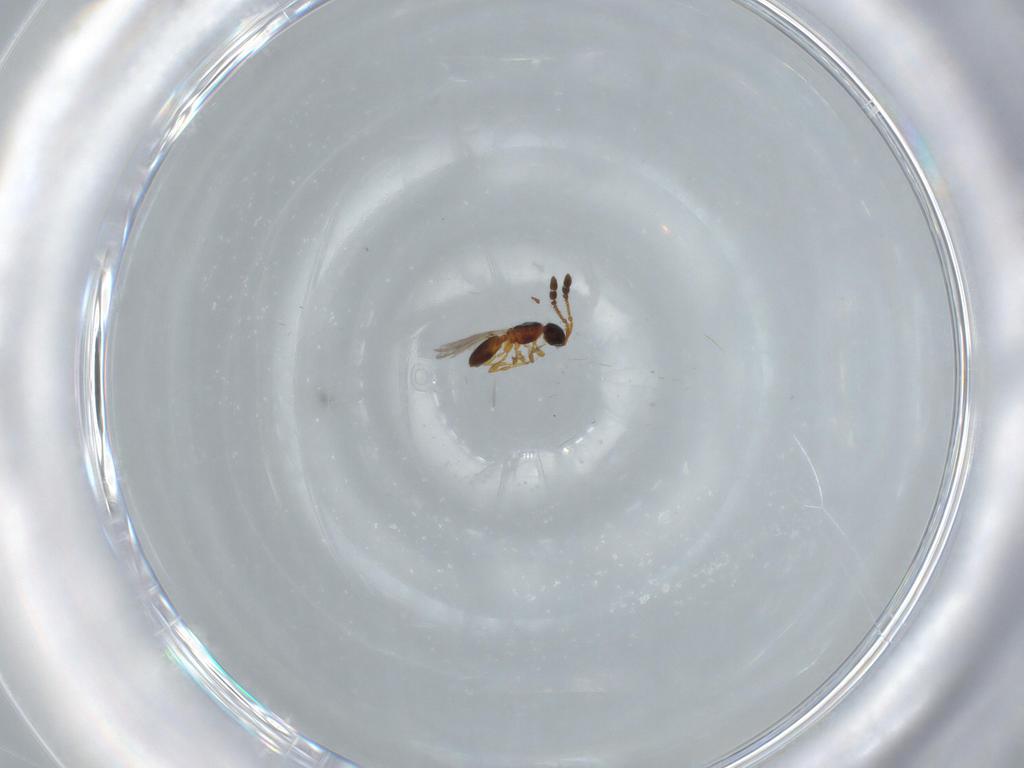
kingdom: Animalia
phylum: Arthropoda
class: Insecta
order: Hymenoptera
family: Diapriidae
